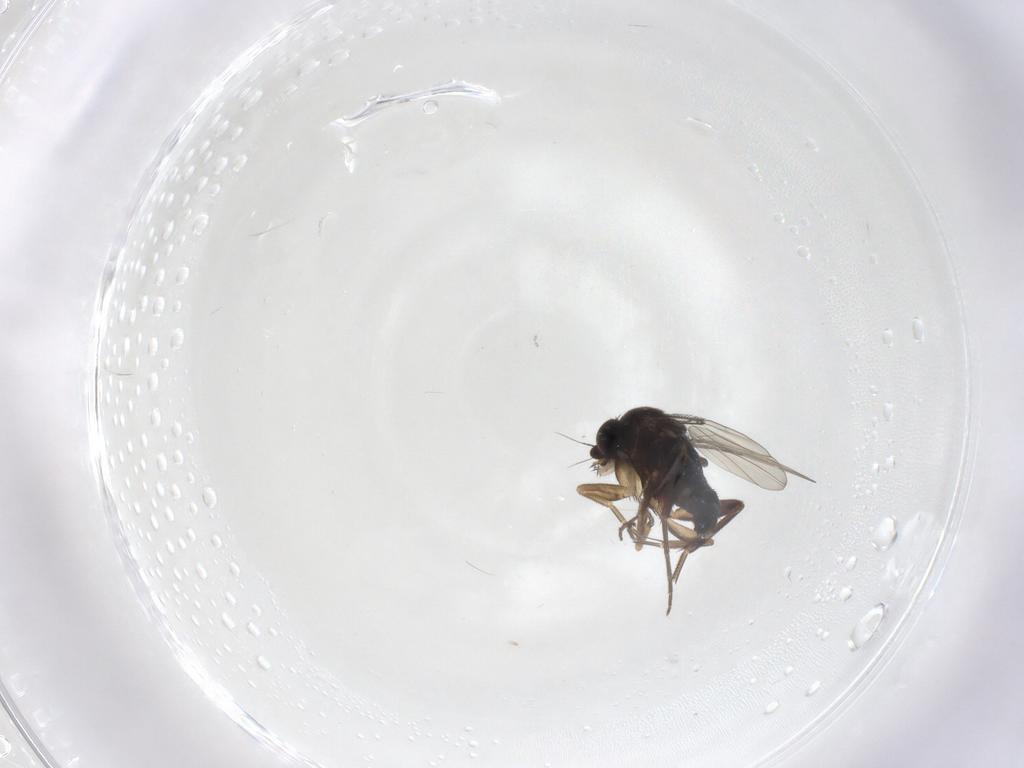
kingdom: Animalia
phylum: Arthropoda
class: Insecta
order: Diptera
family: Phoridae
